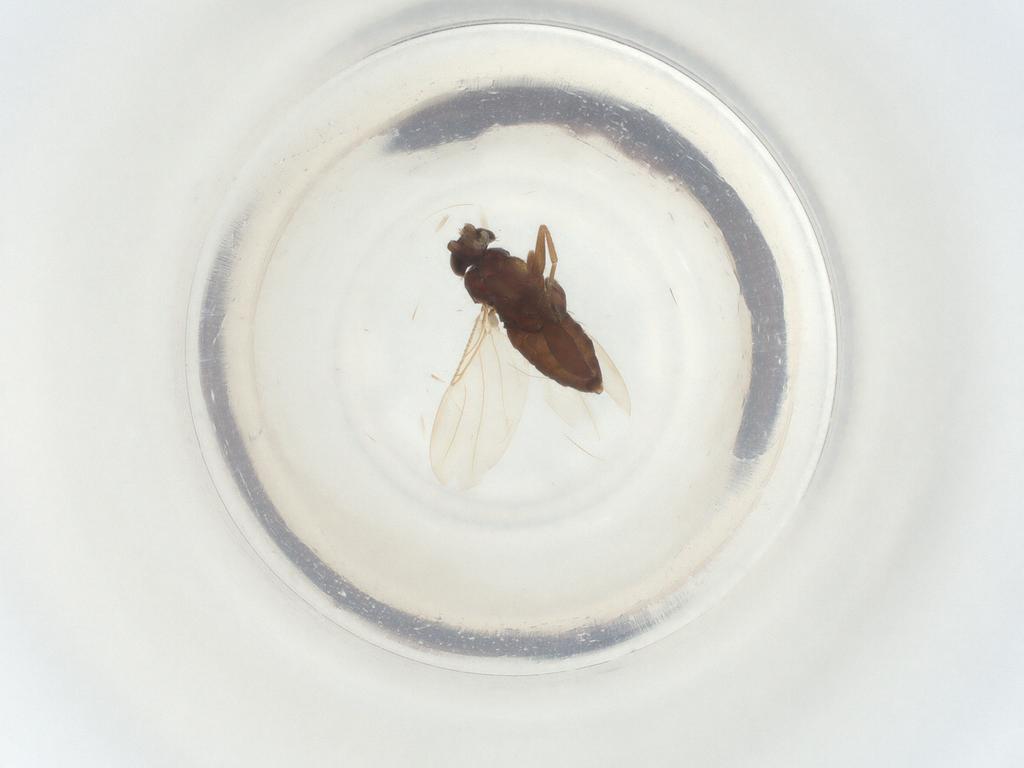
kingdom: Animalia
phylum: Arthropoda
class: Insecta
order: Diptera
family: Phoridae
